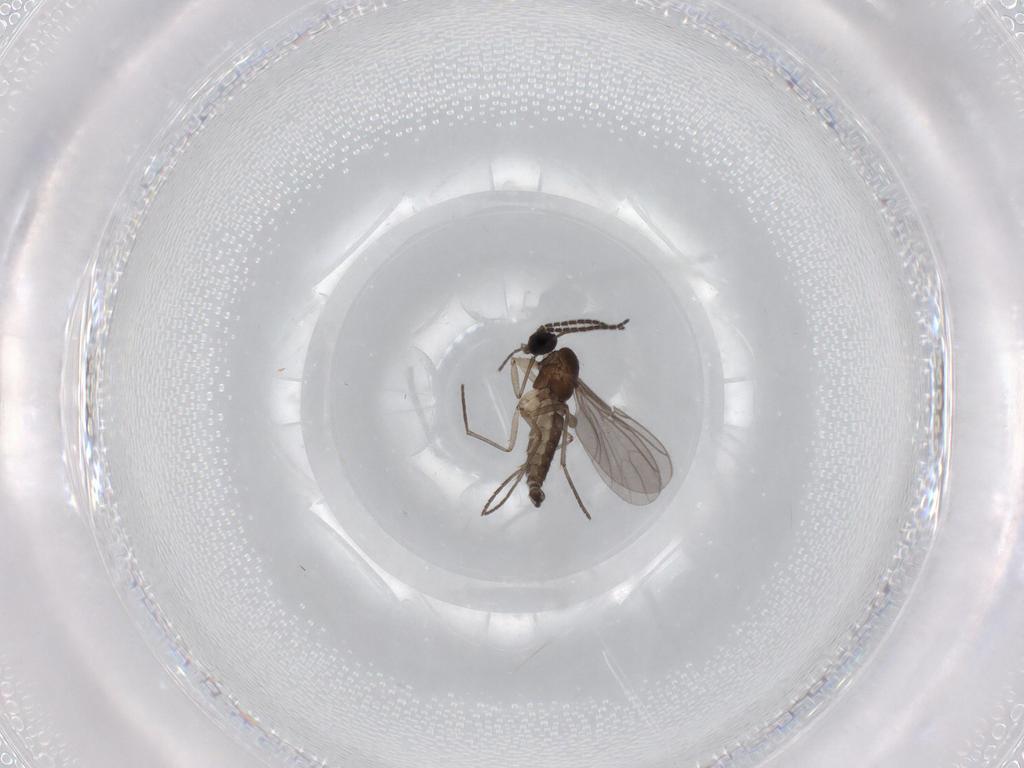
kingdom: Animalia
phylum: Arthropoda
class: Insecta
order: Diptera
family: Sciaridae
